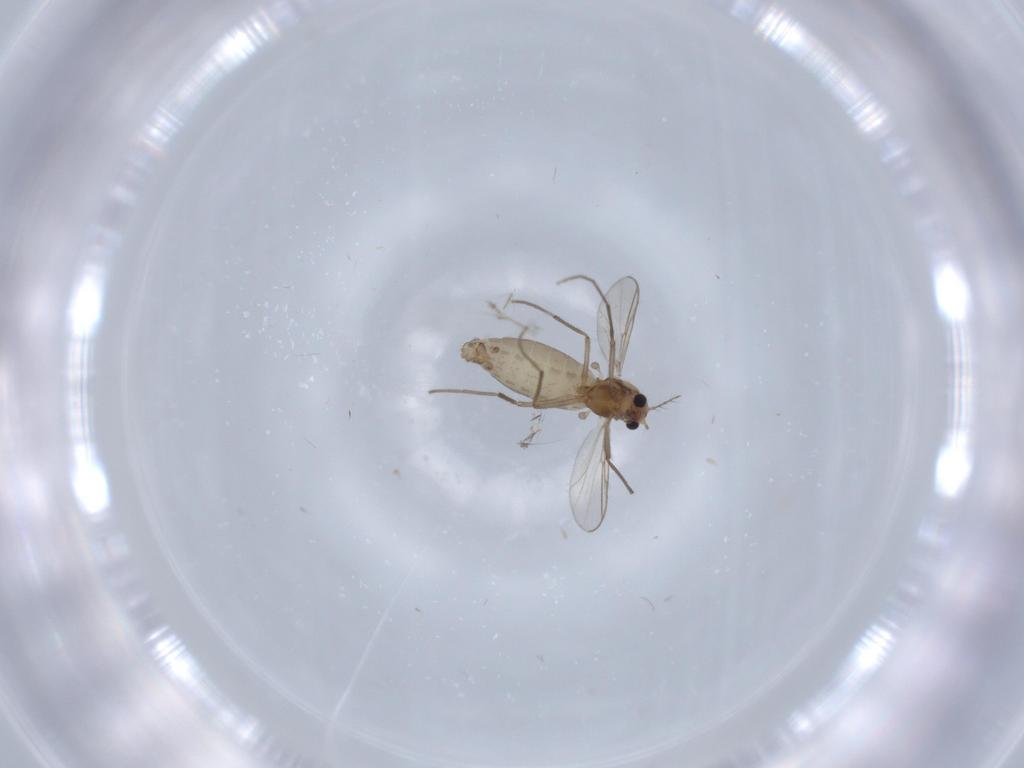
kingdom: Animalia
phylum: Arthropoda
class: Insecta
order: Diptera
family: Chironomidae
